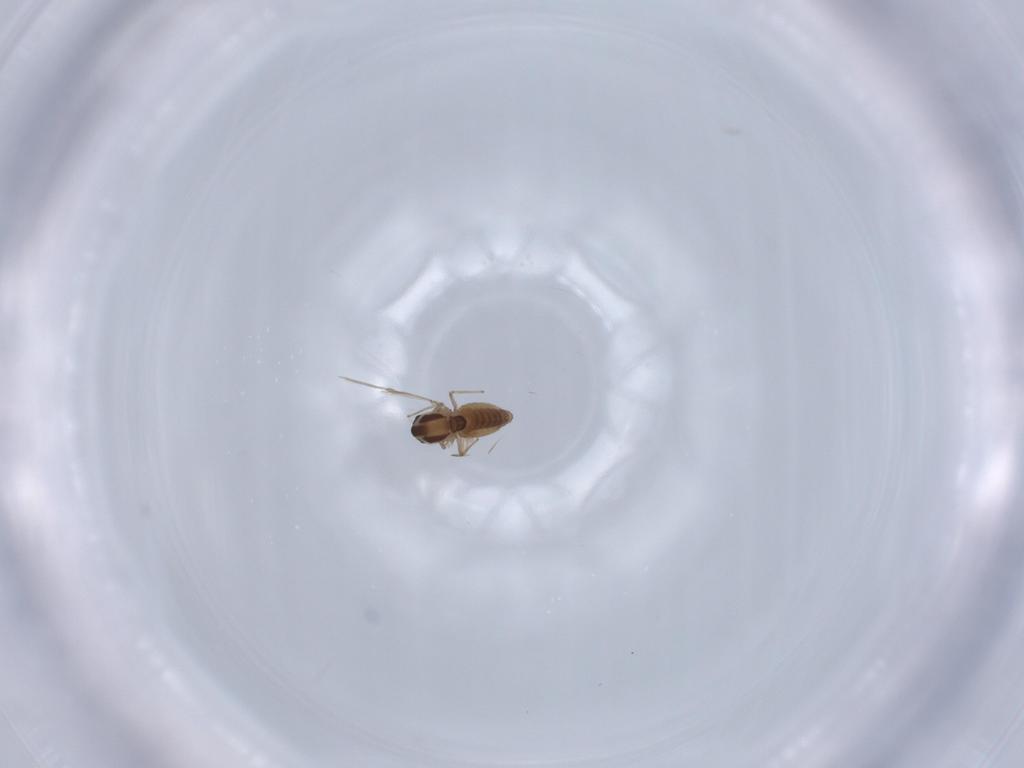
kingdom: Animalia
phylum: Arthropoda
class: Insecta
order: Diptera
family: Chironomidae
